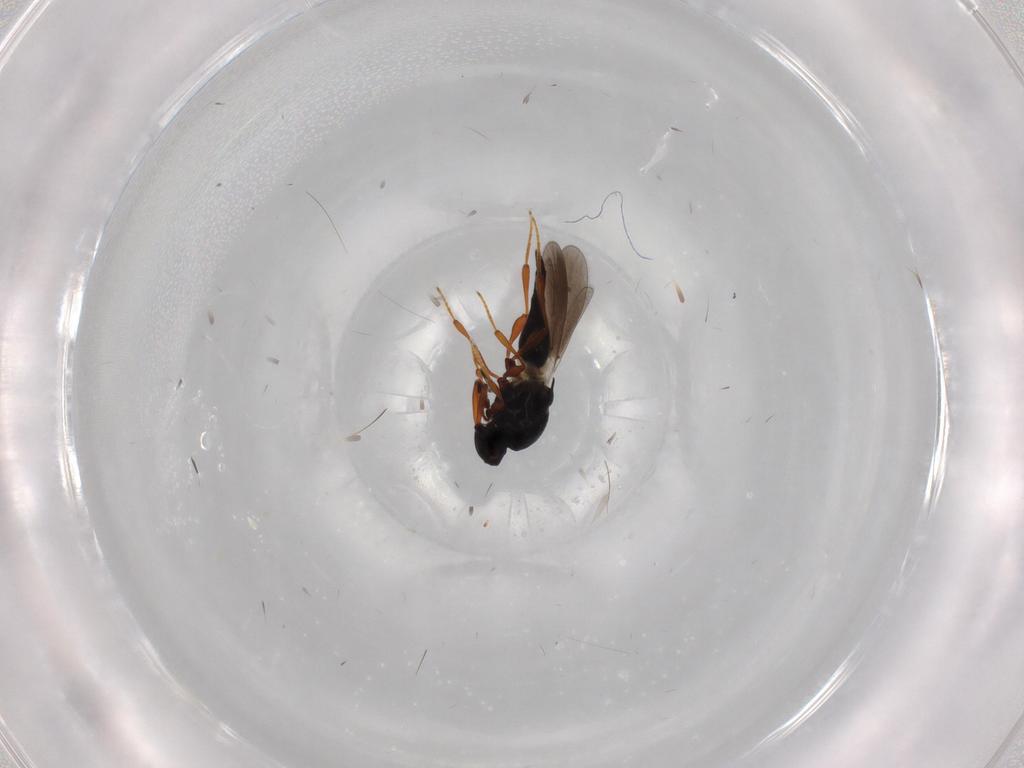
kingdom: Animalia
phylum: Arthropoda
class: Insecta
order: Hymenoptera
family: Platygastridae
